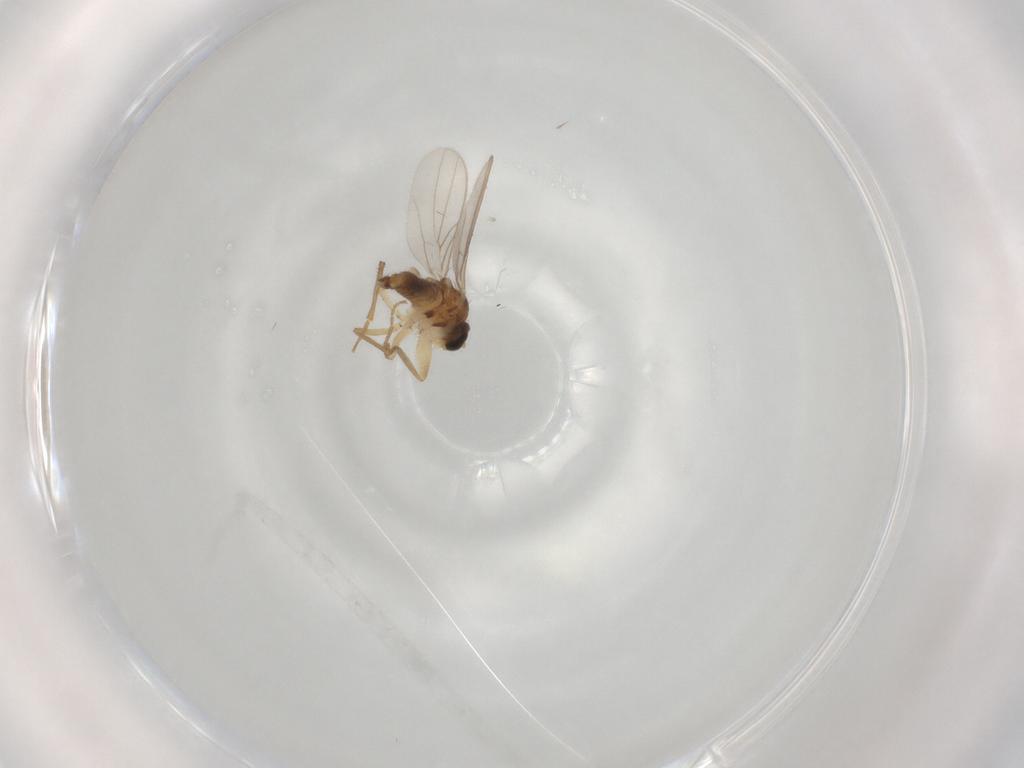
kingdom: Animalia
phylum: Arthropoda
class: Insecta
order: Diptera
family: Hybotidae
